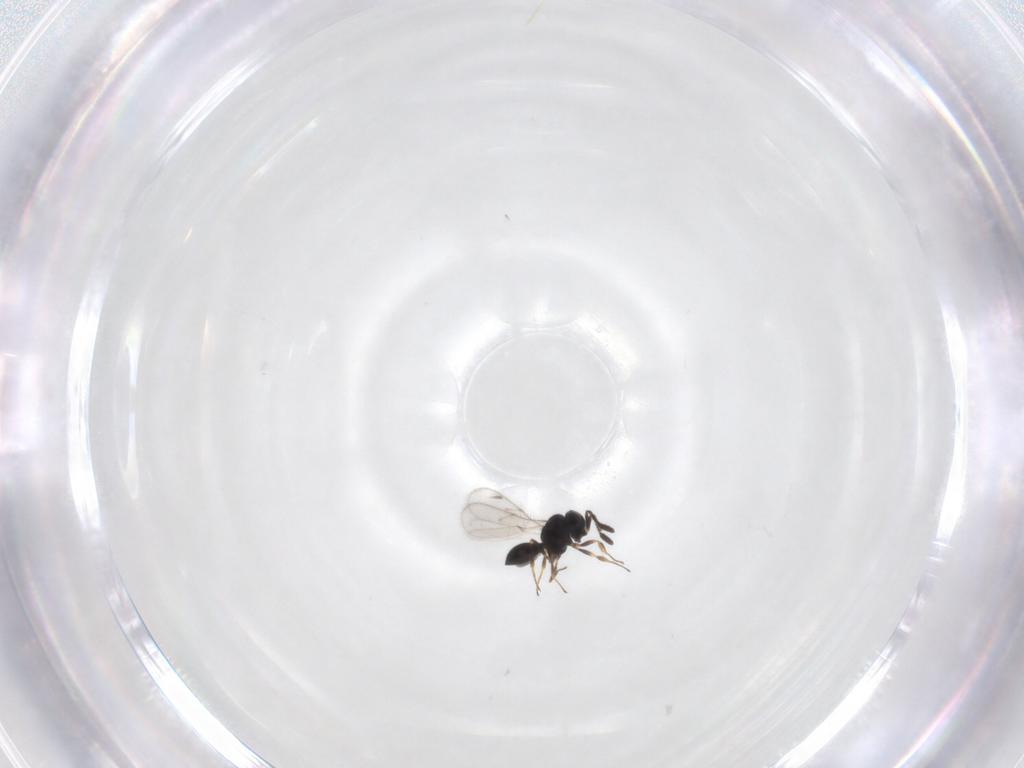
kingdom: Animalia
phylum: Arthropoda
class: Insecta
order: Hymenoptera
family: Scelionidae
